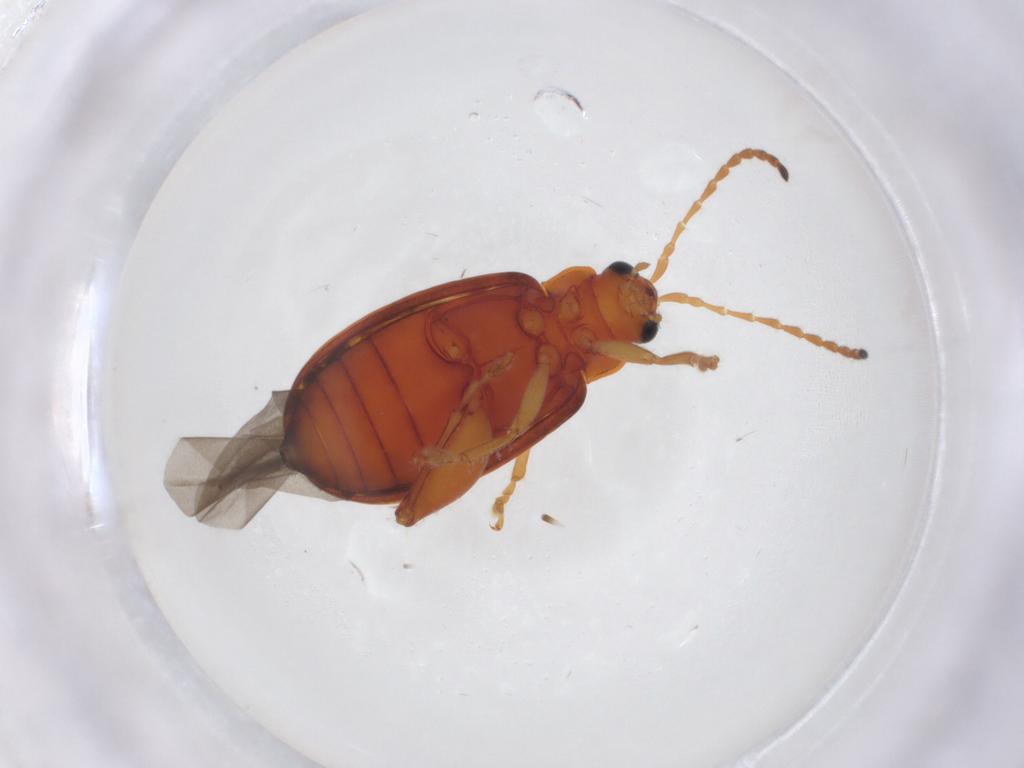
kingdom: Animalia
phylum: Arthropoda
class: Insecta
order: Coleoptera
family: Chrysomelidae
